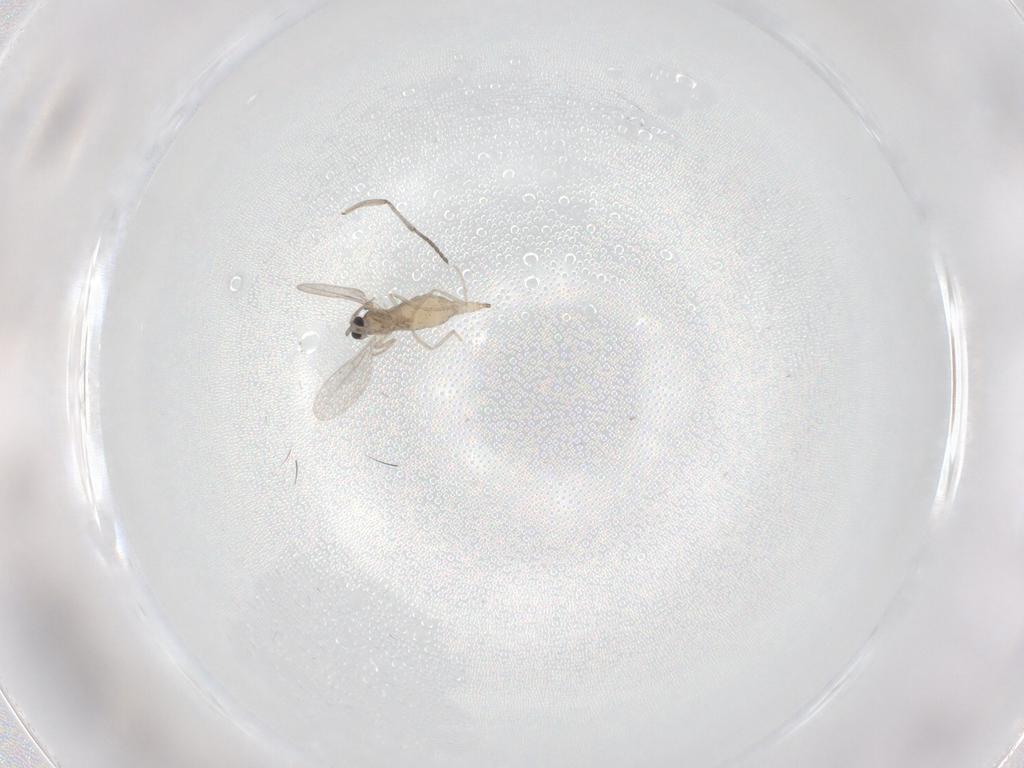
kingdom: Animalia
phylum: Arthropoda
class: Insecta
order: Diptera
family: Cecidomyiidae
